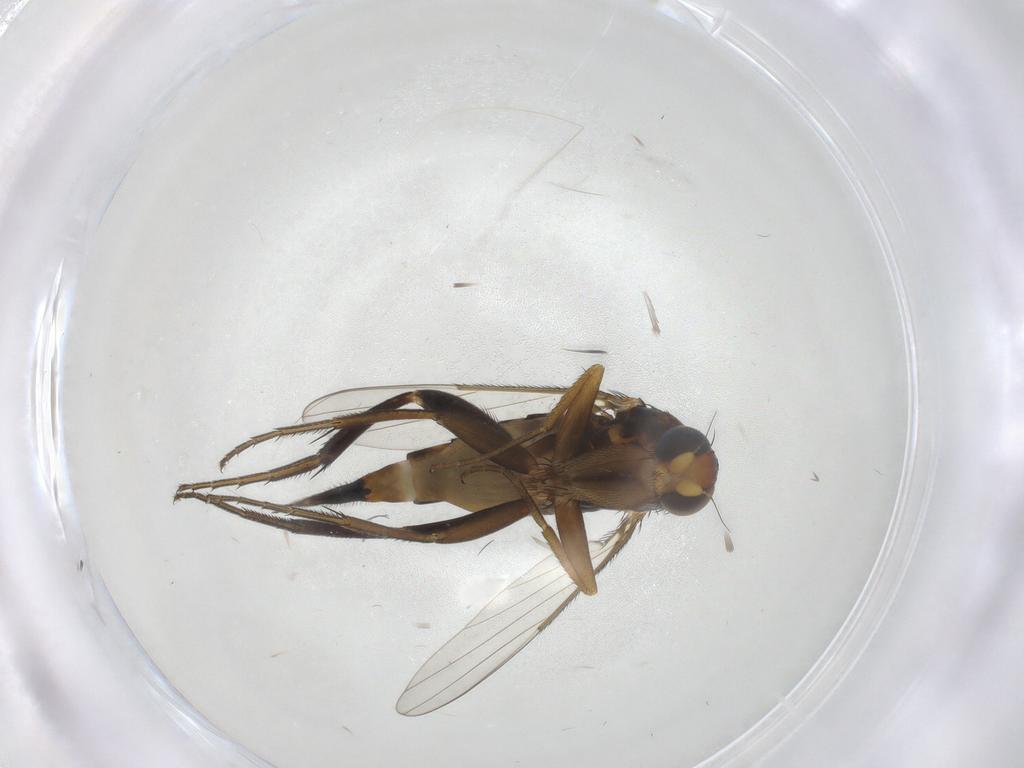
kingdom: Animalia
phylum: Arthropoda
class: Insecta
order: Diptera
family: Phoridae
